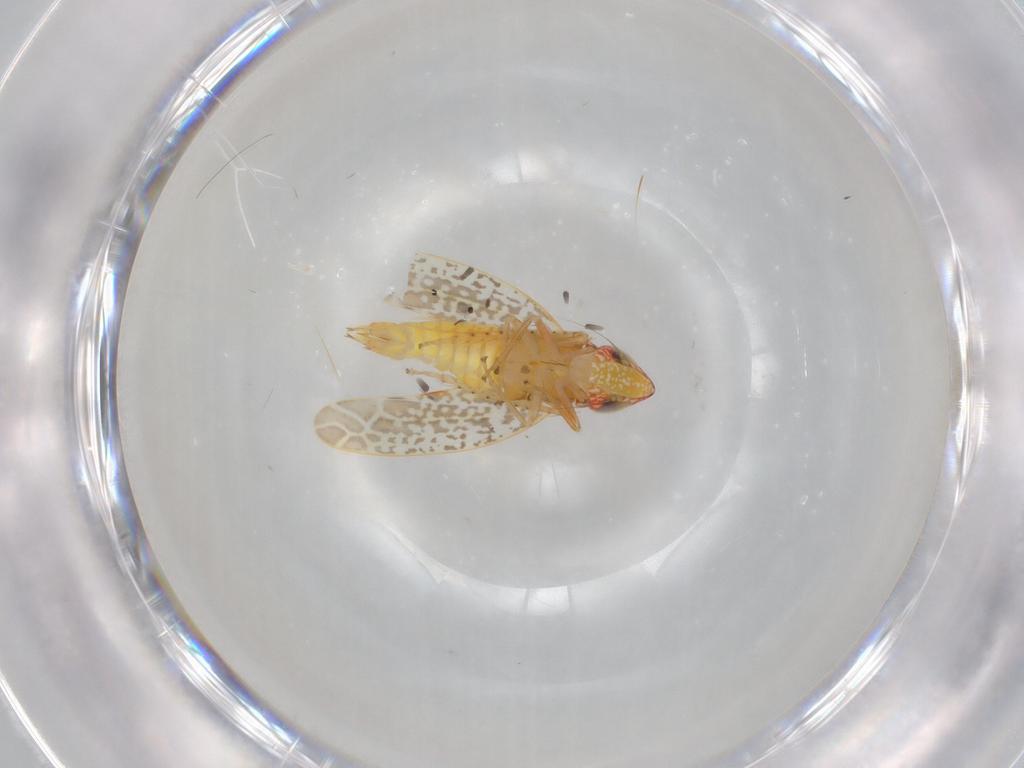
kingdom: Animalia
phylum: Arthropoda
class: Insecta
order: Hemiptera
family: Cicadellidae
